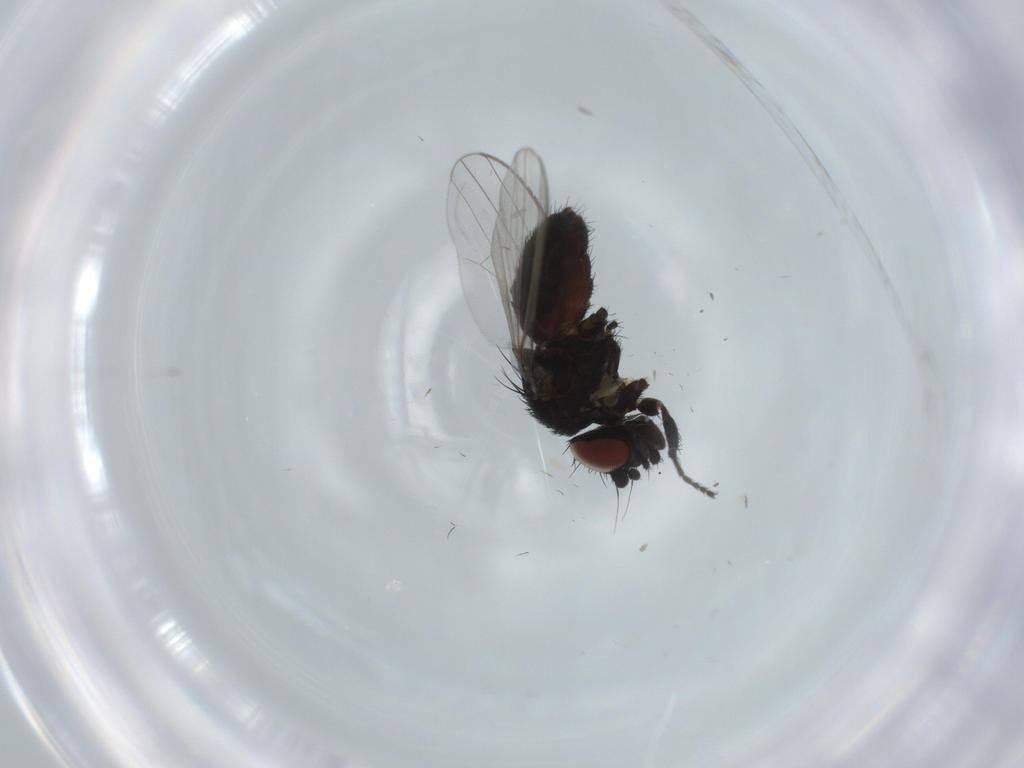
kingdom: Animalia
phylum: Arthropoda
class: Insecta
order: Diptera
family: Milichiidae
